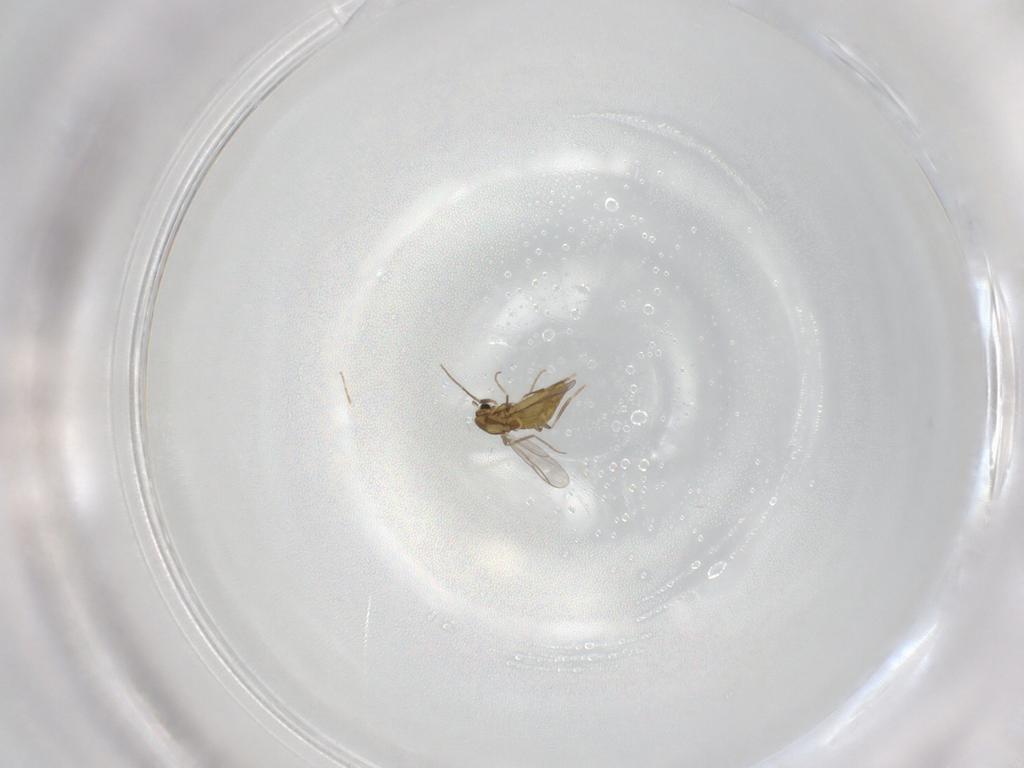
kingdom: Animalia
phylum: Arthropoda
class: Insecta
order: Diptera
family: Chironomidae
